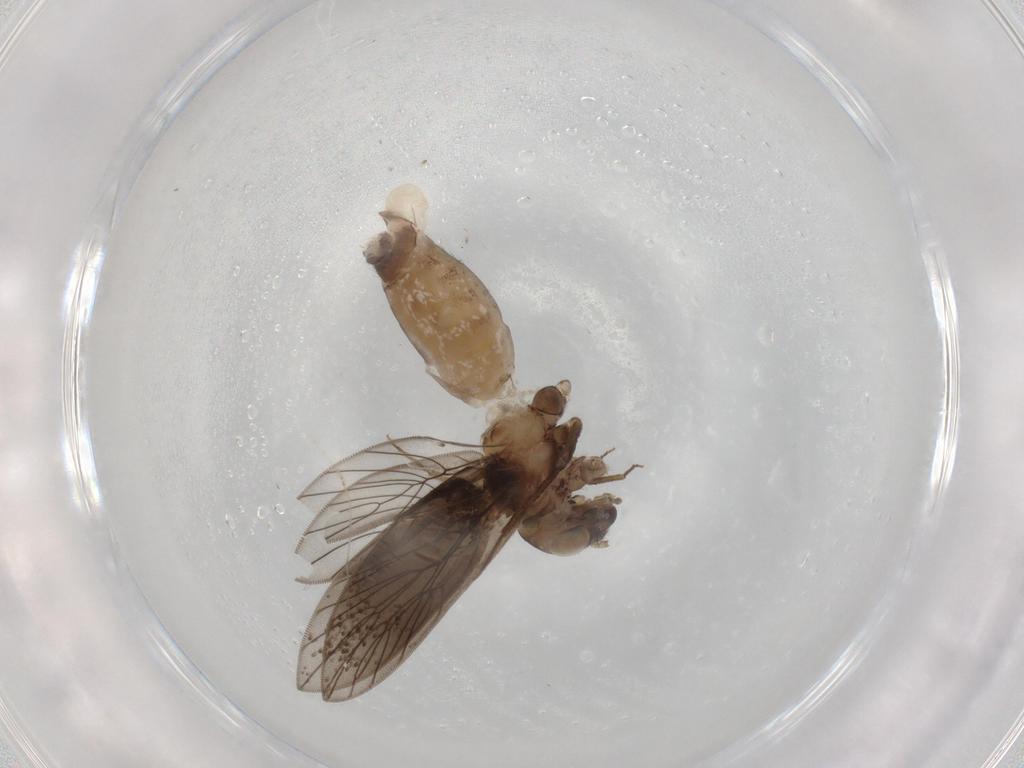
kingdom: Animalia
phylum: Arthropoda
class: Insecta
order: Psocodea
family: Lepidopsocidae
